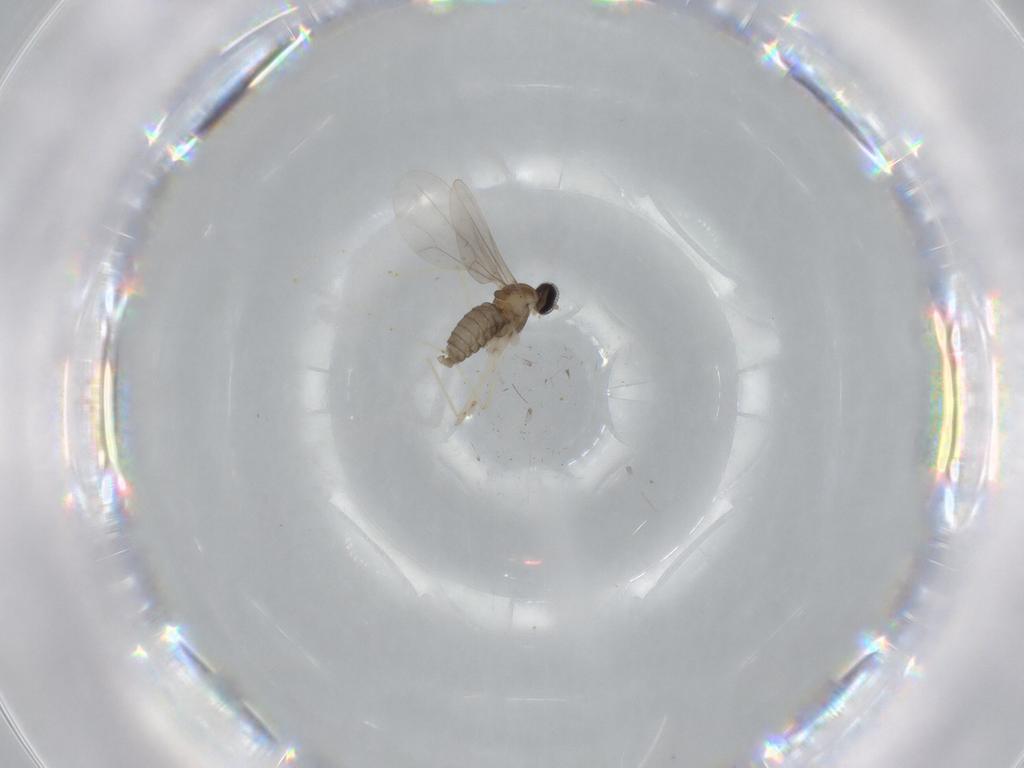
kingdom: Animalia
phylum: Arthropoda
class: Insecta
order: Diptera
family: Cecidomyiidae
